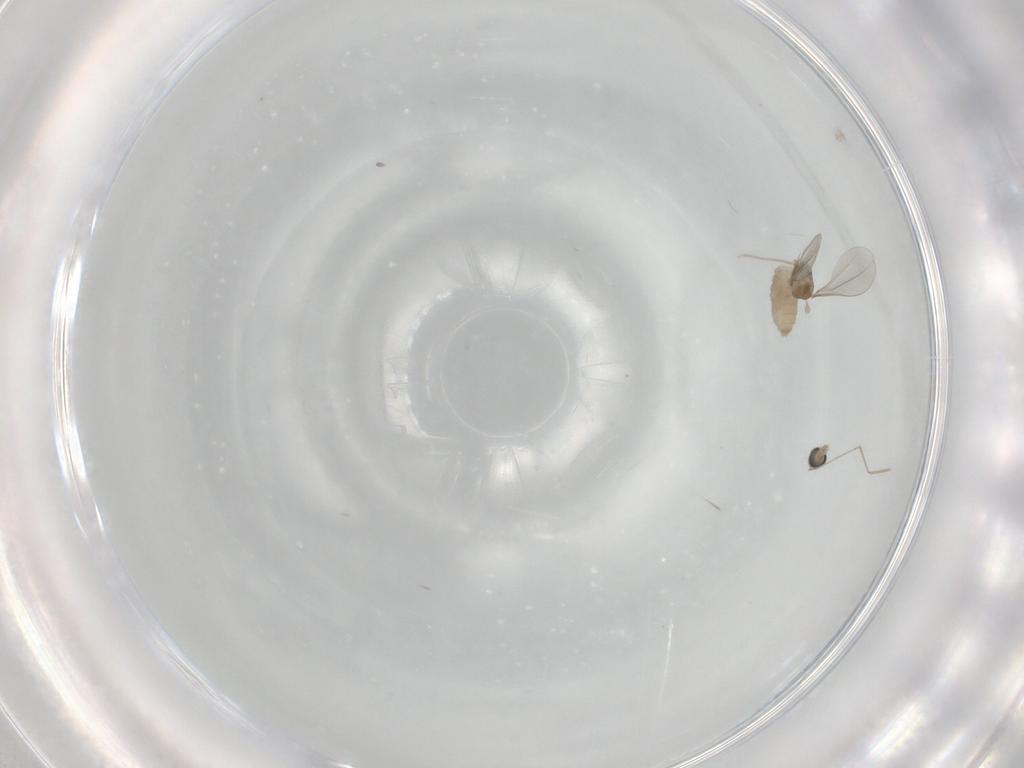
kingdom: Animalia
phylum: Arthropoda
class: Insecta
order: Diptera
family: Cecidomyiidae
